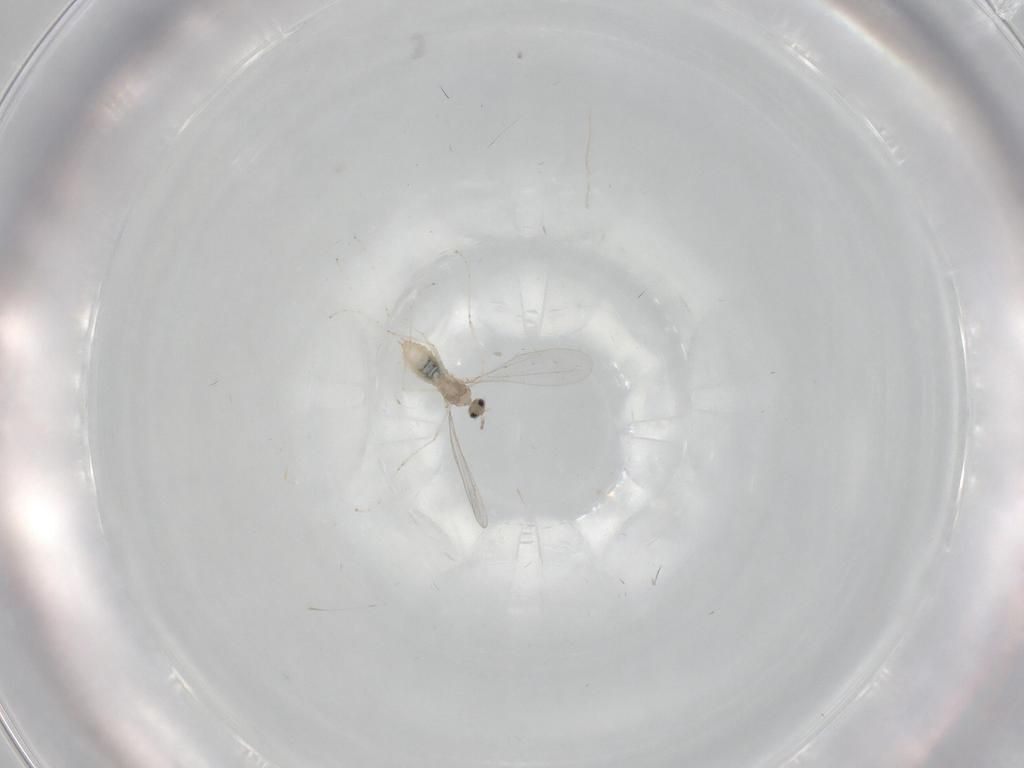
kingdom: Animalia
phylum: Arthropoda
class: Insecta
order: Diptera
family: Cecidomyiidae
